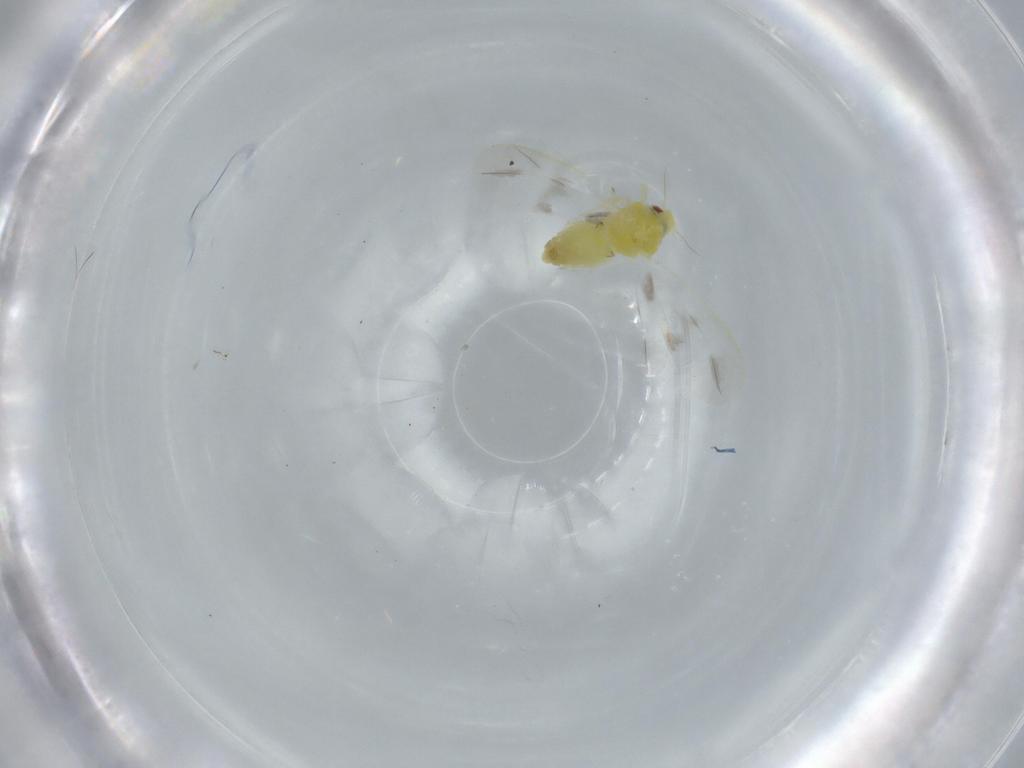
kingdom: Animalia
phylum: Arthropoda
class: Insecta
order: Hemiptera
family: Aleyrodidae
